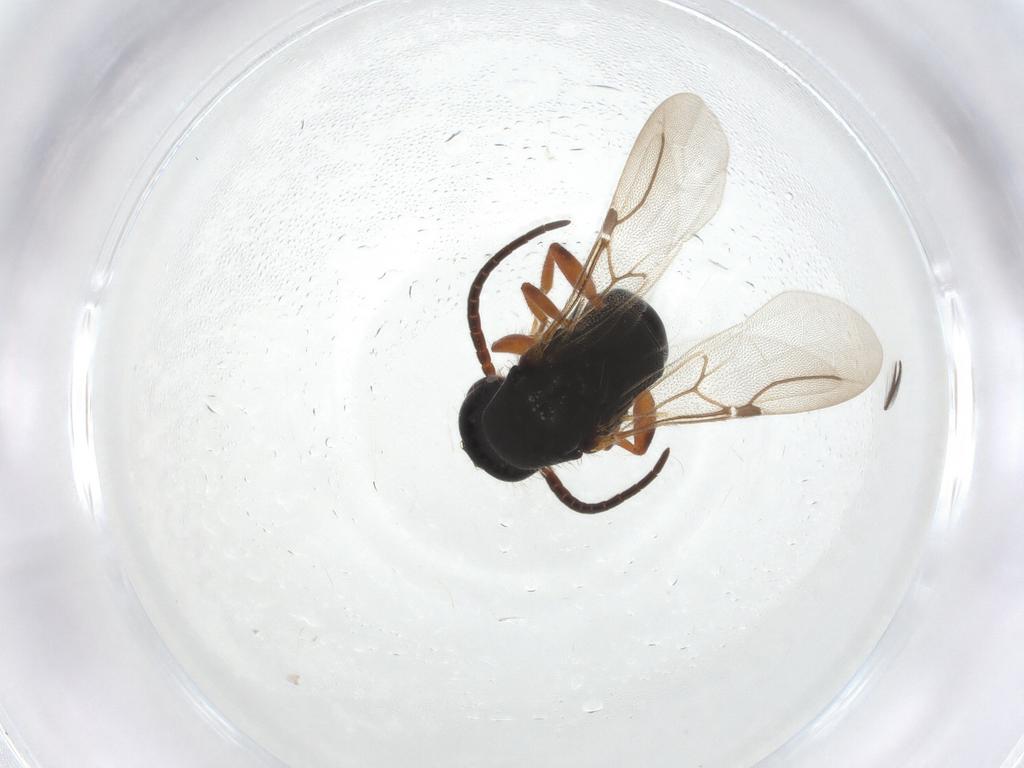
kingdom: Animalia
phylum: Arthropoda
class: Insecta
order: Hymenoptera
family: Bethylidae
